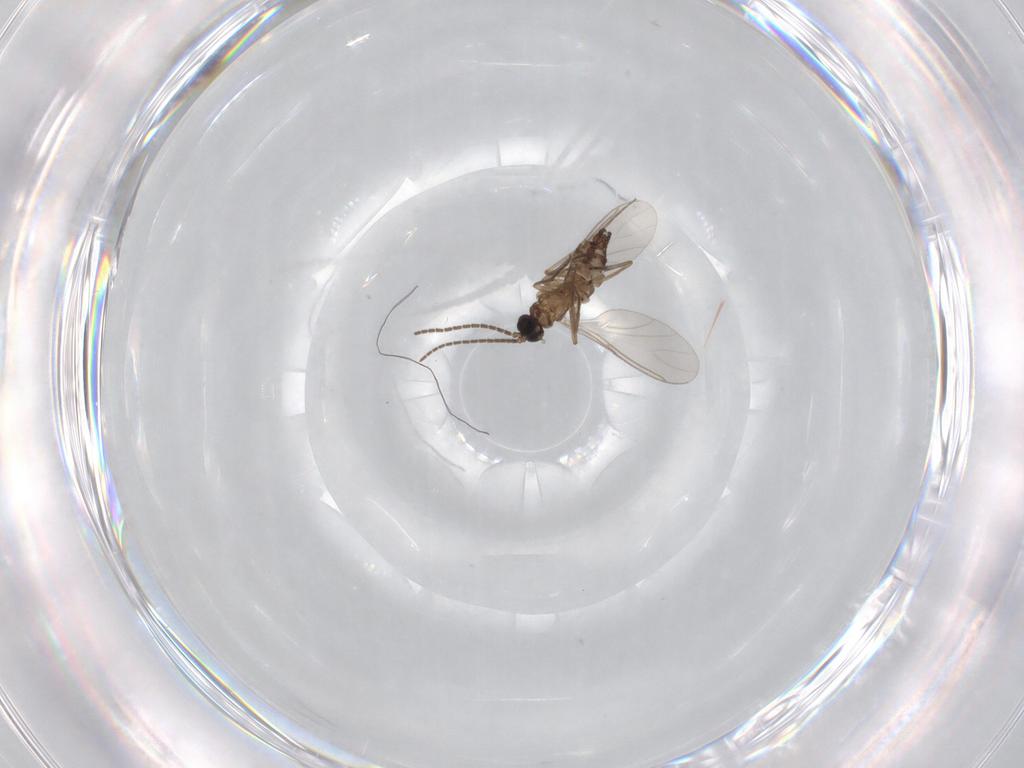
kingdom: Animalia
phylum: Arthropoda
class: Insecta
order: Diptera
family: Sciaridae
